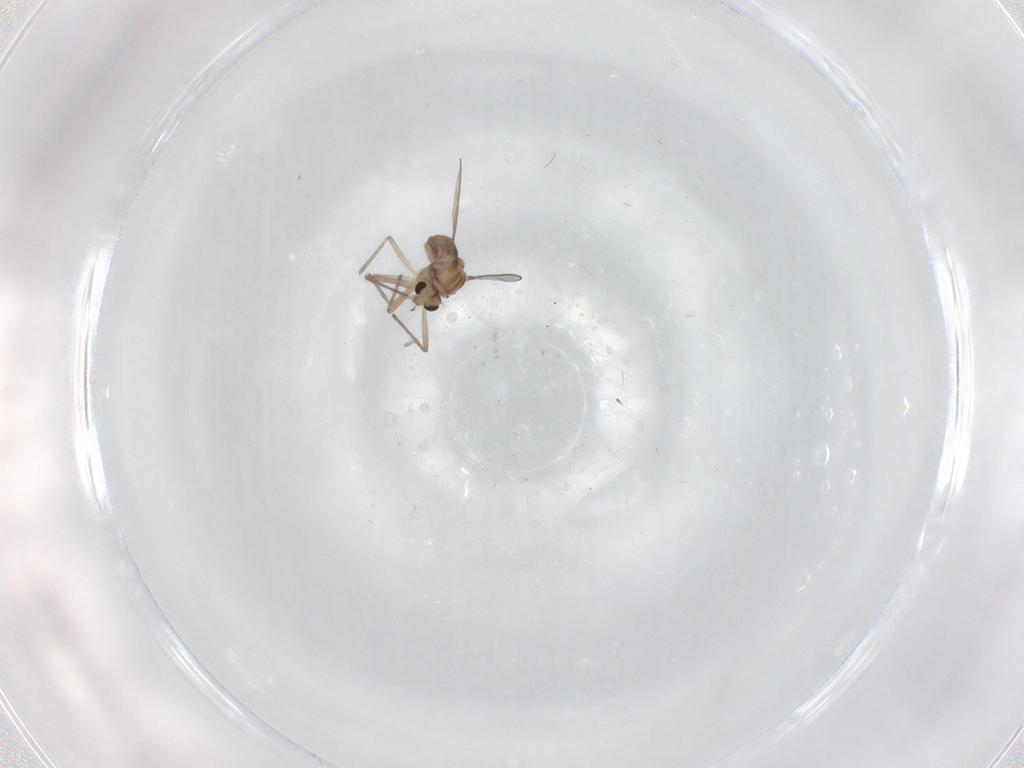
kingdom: Animalia
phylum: Arthropoda
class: Insecta
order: Diptera
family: Chironomidae
